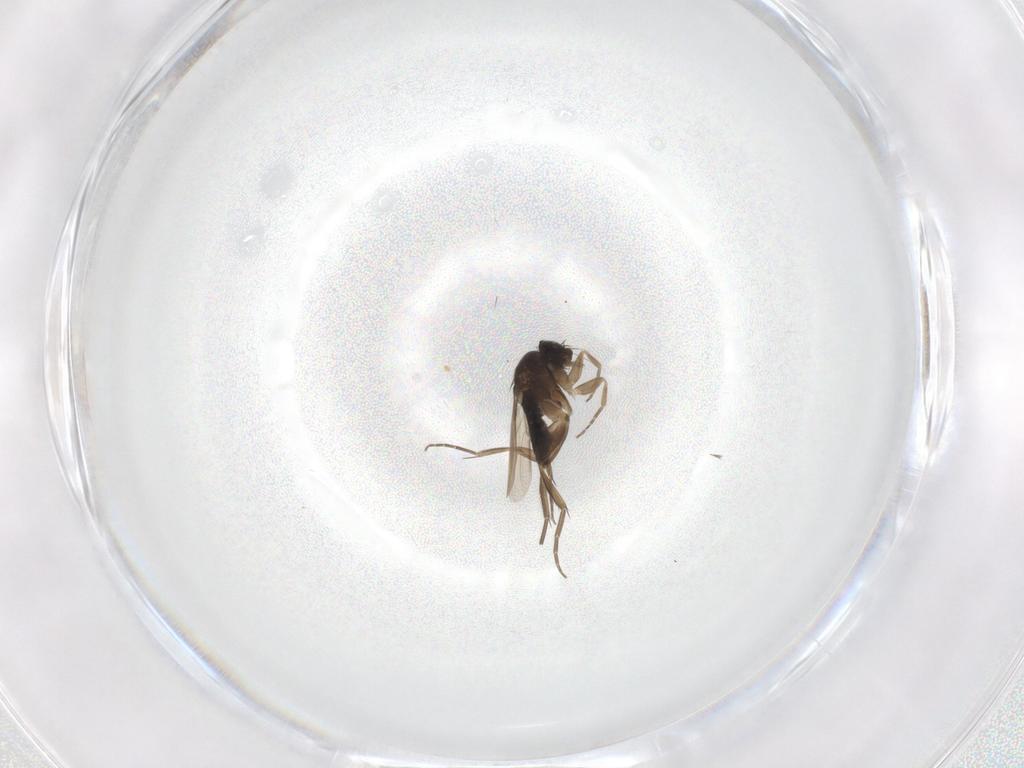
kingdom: Animalia
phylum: Arthropoda
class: Insecta
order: Diptera
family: Phoridae
